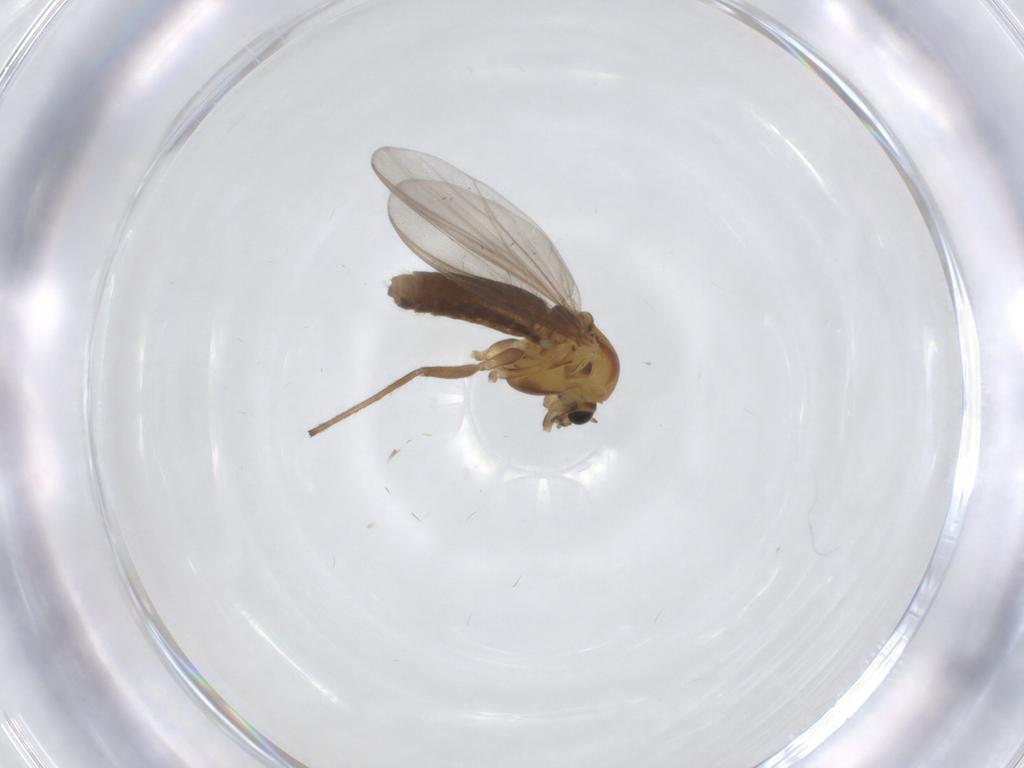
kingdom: Animalia
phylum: Arthropoda
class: Insecta
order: Diptera
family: Chironomidae
